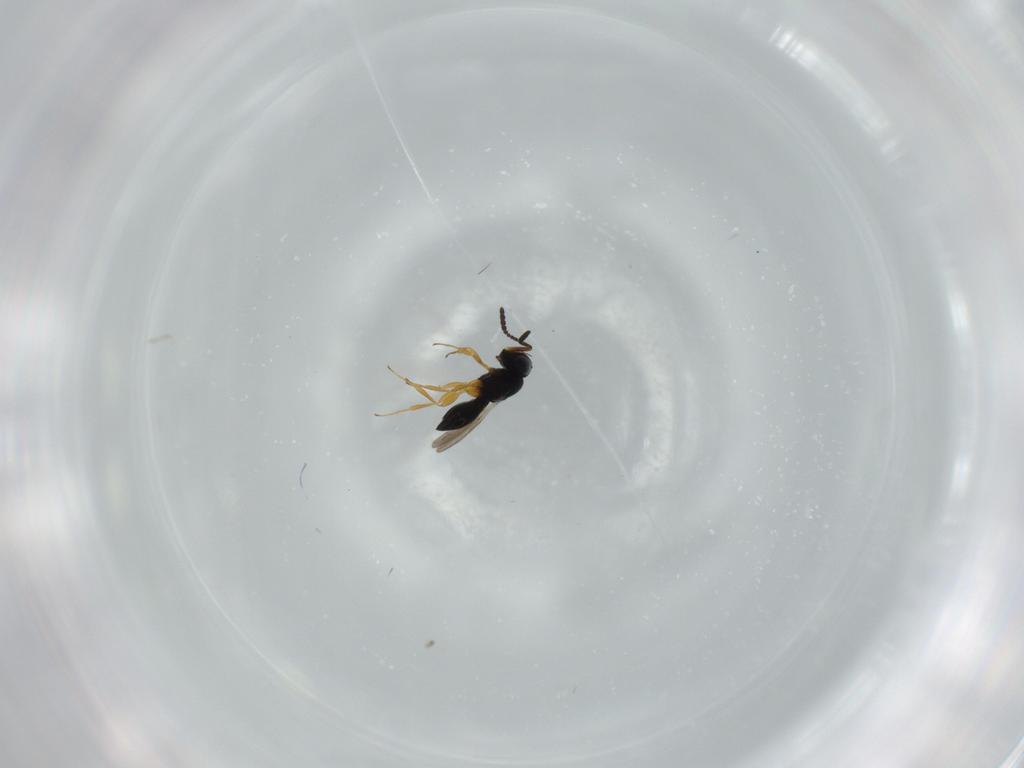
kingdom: Animalia
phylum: Arthropoda
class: Insecta
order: Hymenoptera
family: Scelionidae
